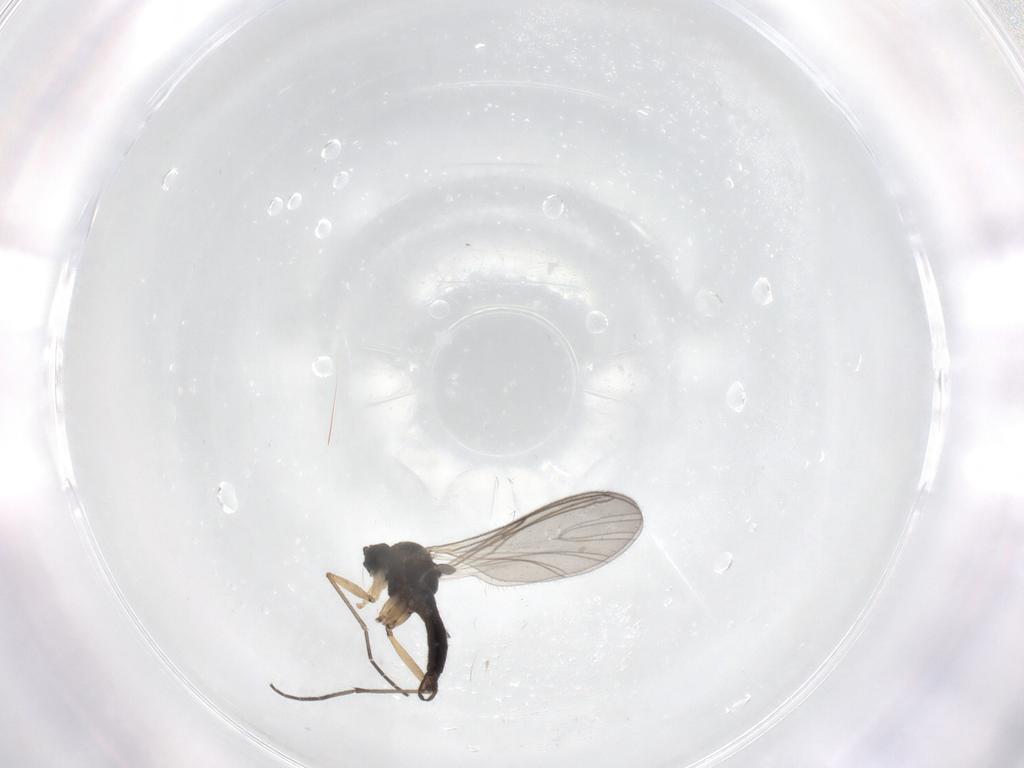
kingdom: Animalia
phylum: Arthropoda
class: Insecta
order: Diptera
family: Sciaridae
